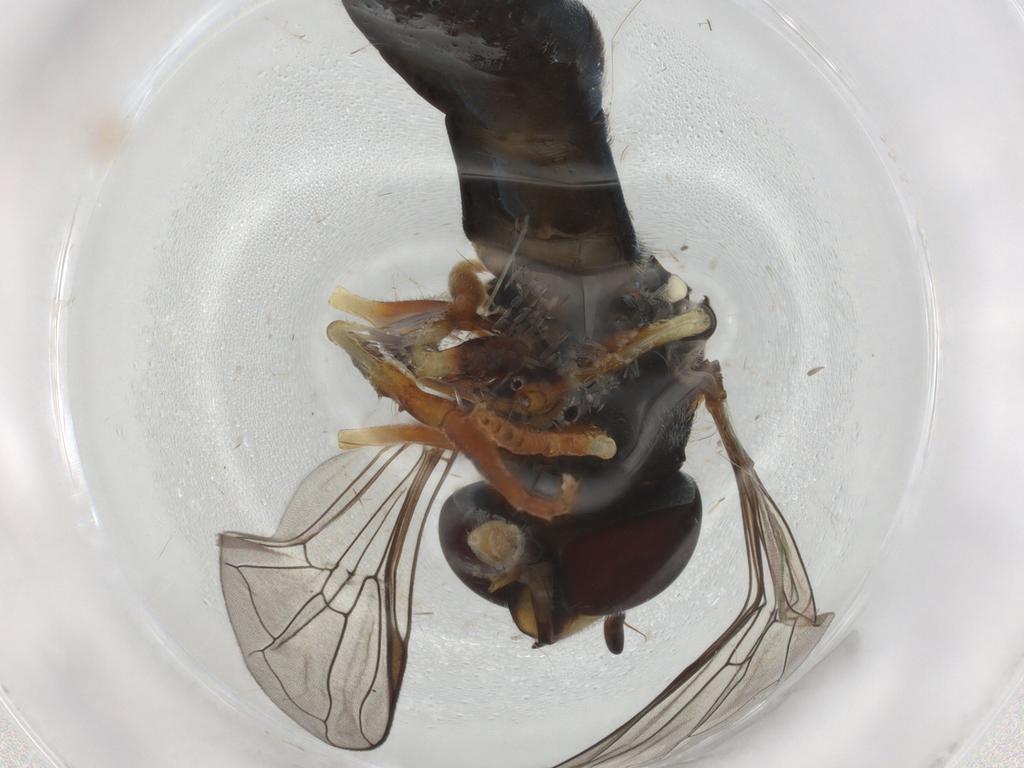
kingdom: Animalia
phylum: Arthropoda
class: Insecta
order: Diptera
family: Syrphidae
